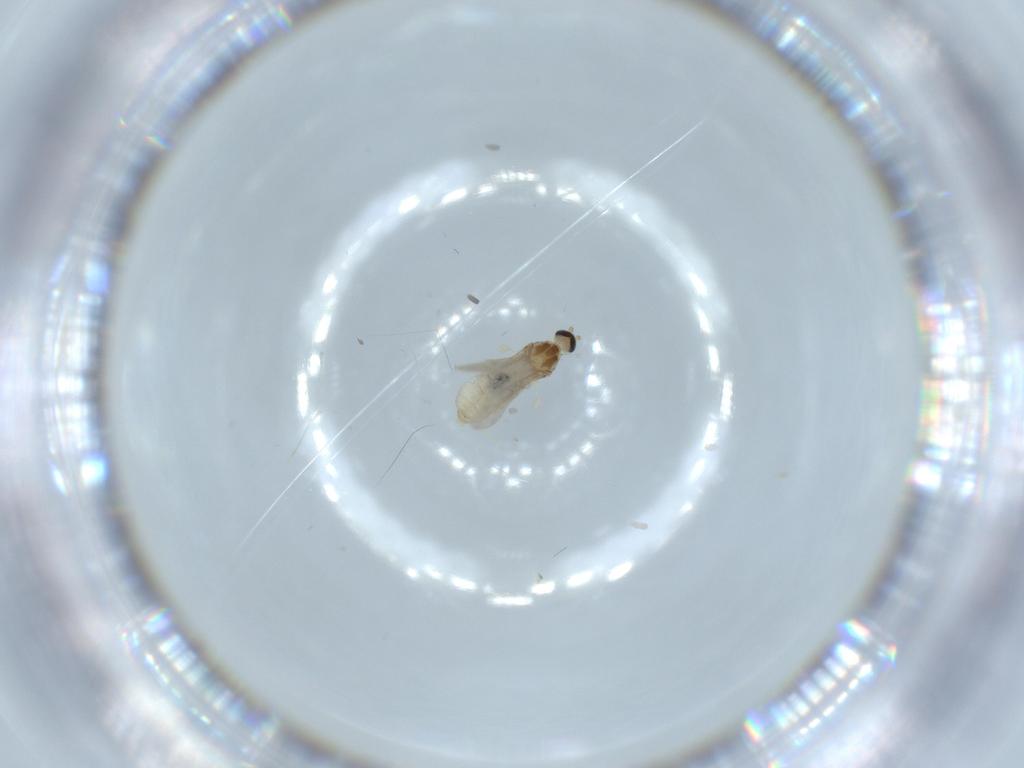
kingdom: Animalia
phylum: Arthropoda
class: Insecta
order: Diptera
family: Cecidomyiidae
